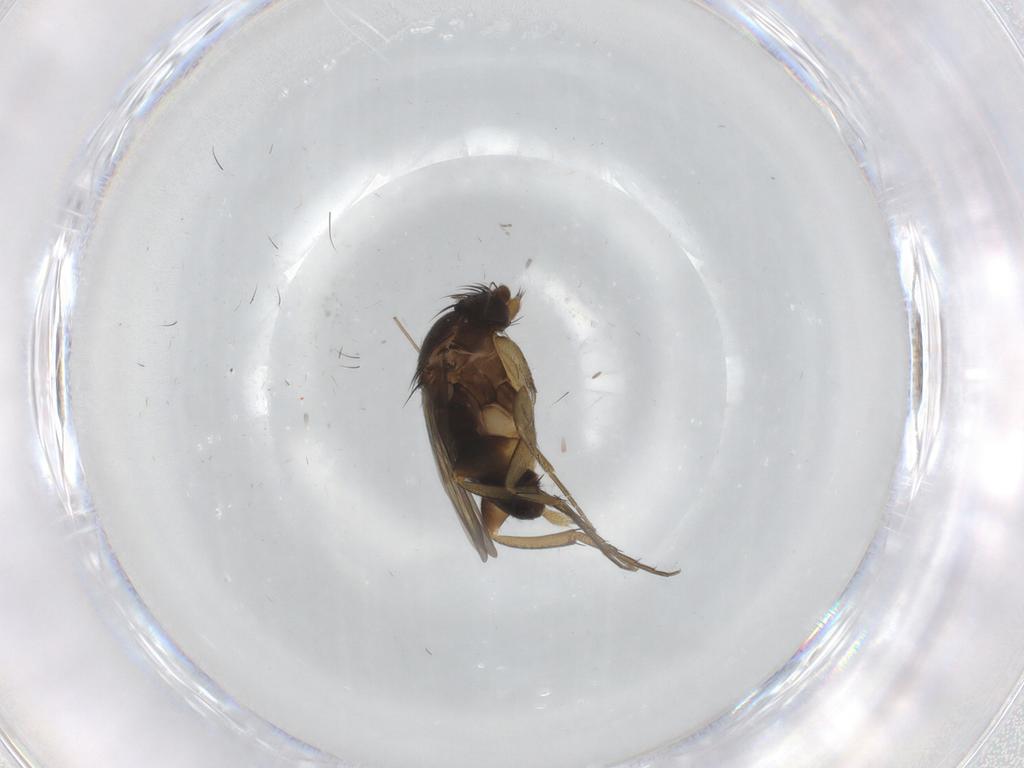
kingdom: Animalia
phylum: Arthropoda
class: Insecta
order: Diptera
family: Phoridae
